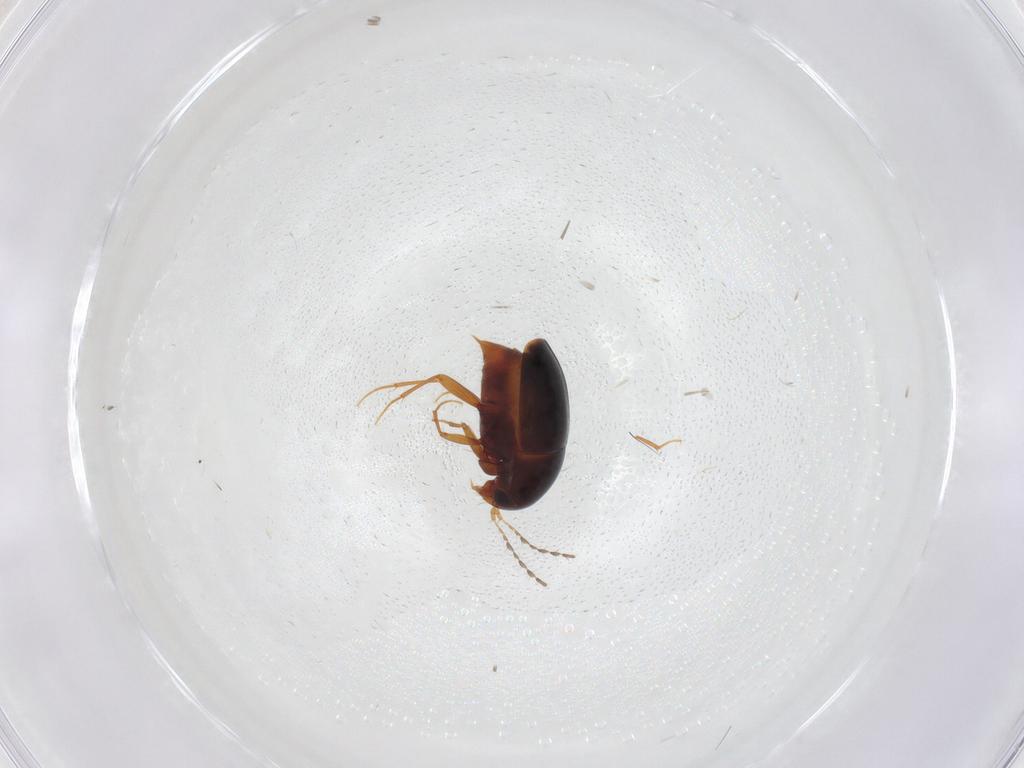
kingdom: Animalia
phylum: Arthropoda
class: Insecta
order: Coleoptera
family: Staphylinidae
